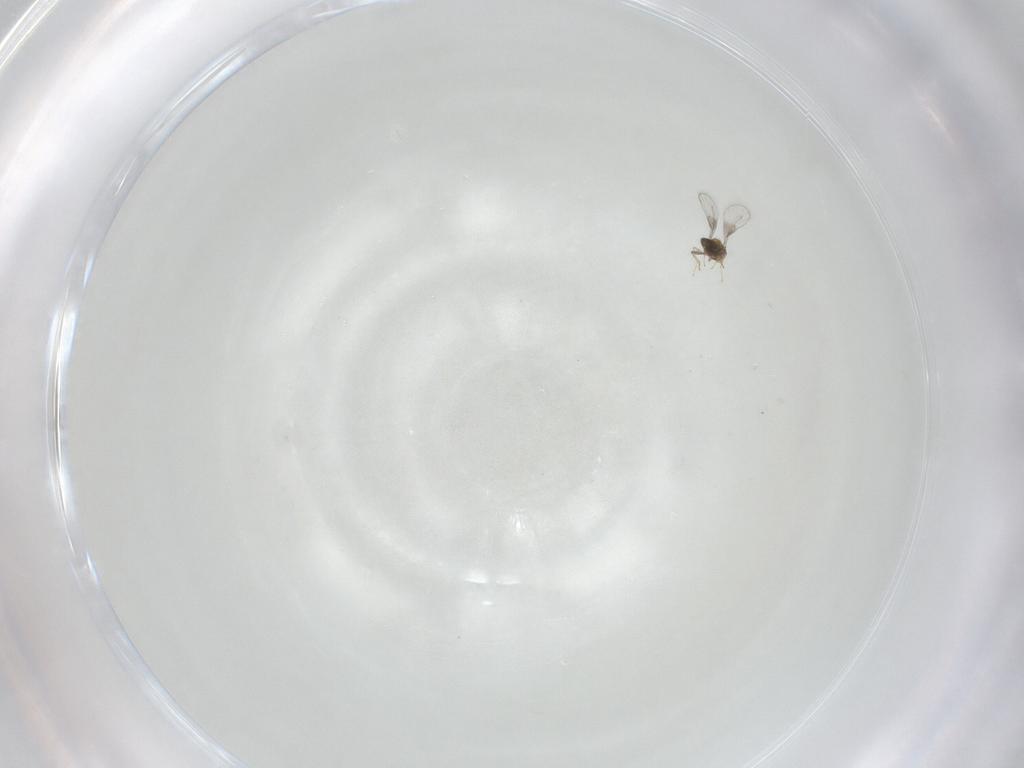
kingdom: Animalia
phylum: Arthropoda
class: Insecta
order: Hymenoptera
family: Trichogrammatidae
